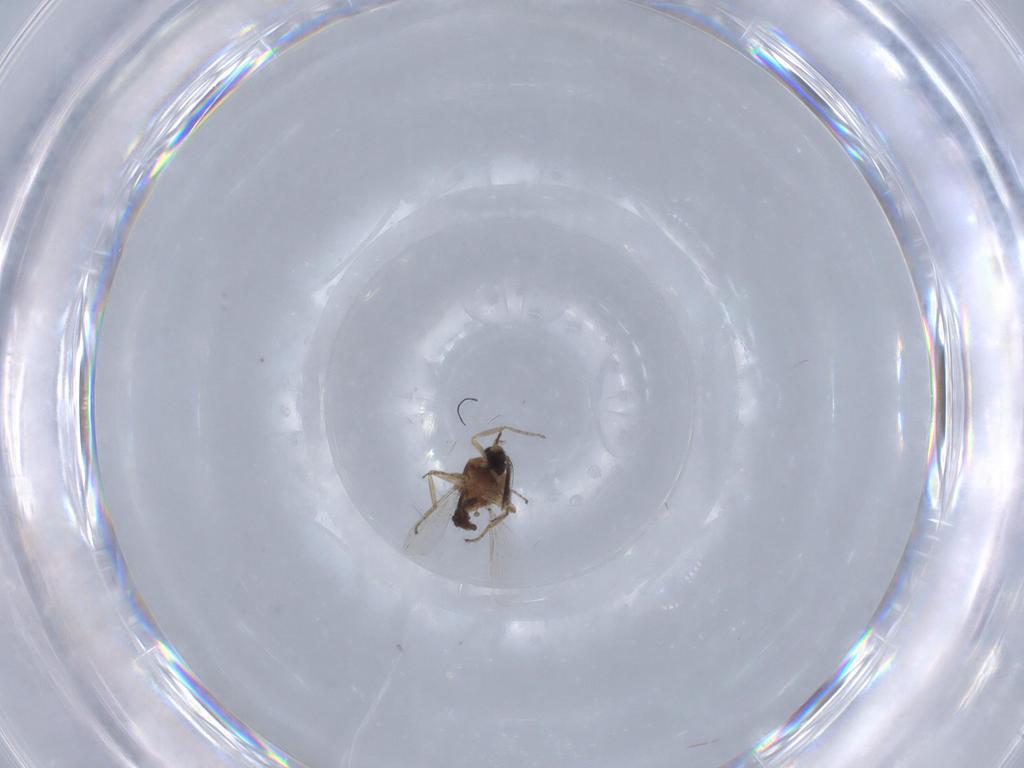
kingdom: Animalia
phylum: Arthropoda
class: Insecta
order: Diptera
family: Ceratopogonidae
